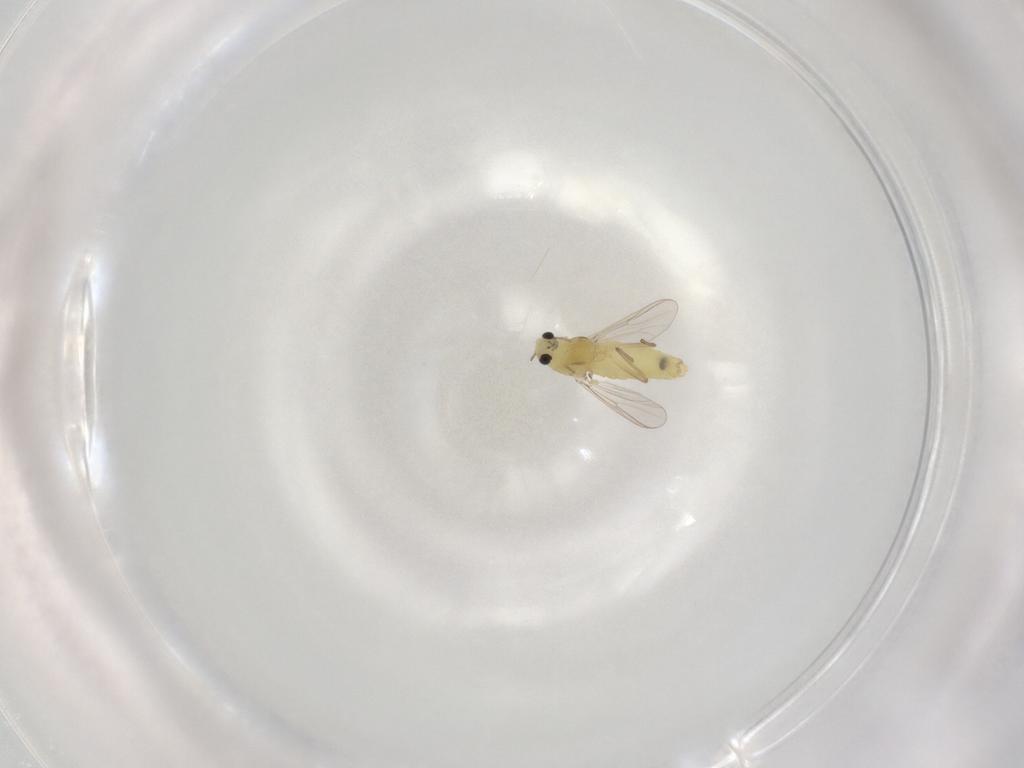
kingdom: Animalia
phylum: Arthropoda
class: Insecta
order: Diptera
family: Chironomidae
